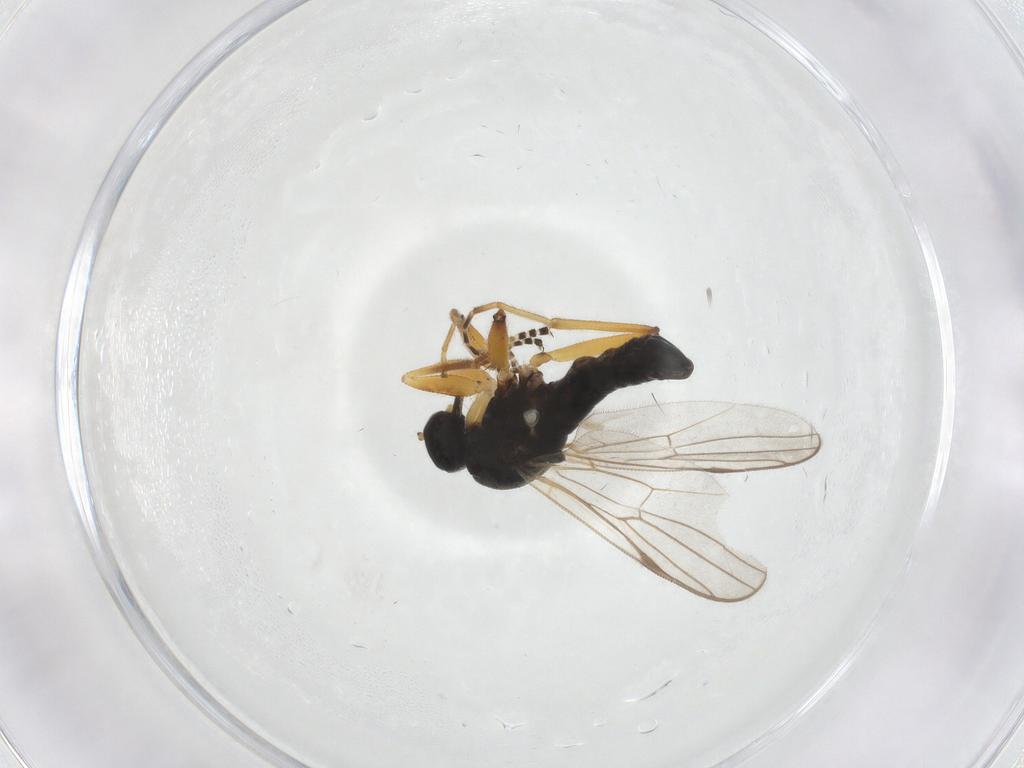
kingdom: Animalia
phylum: Arthropoda
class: Insecta
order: Diptera
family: Hybotidae
